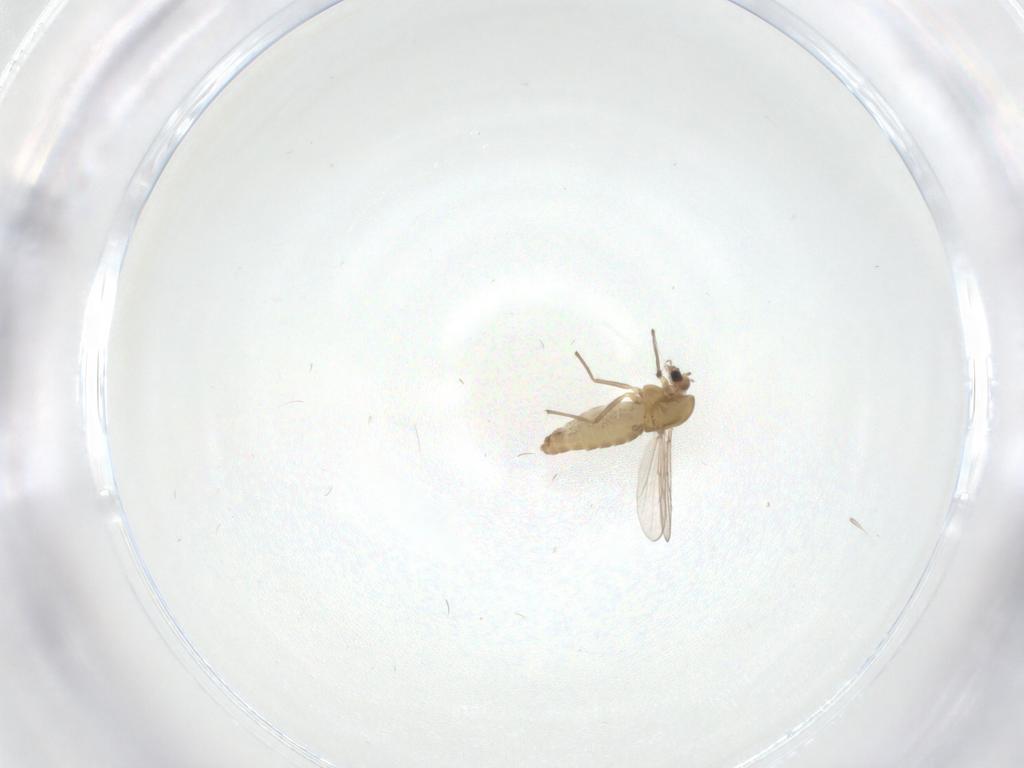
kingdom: Animalia
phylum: Arthropoda
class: Insecta
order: Diptera
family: Chironomidae
